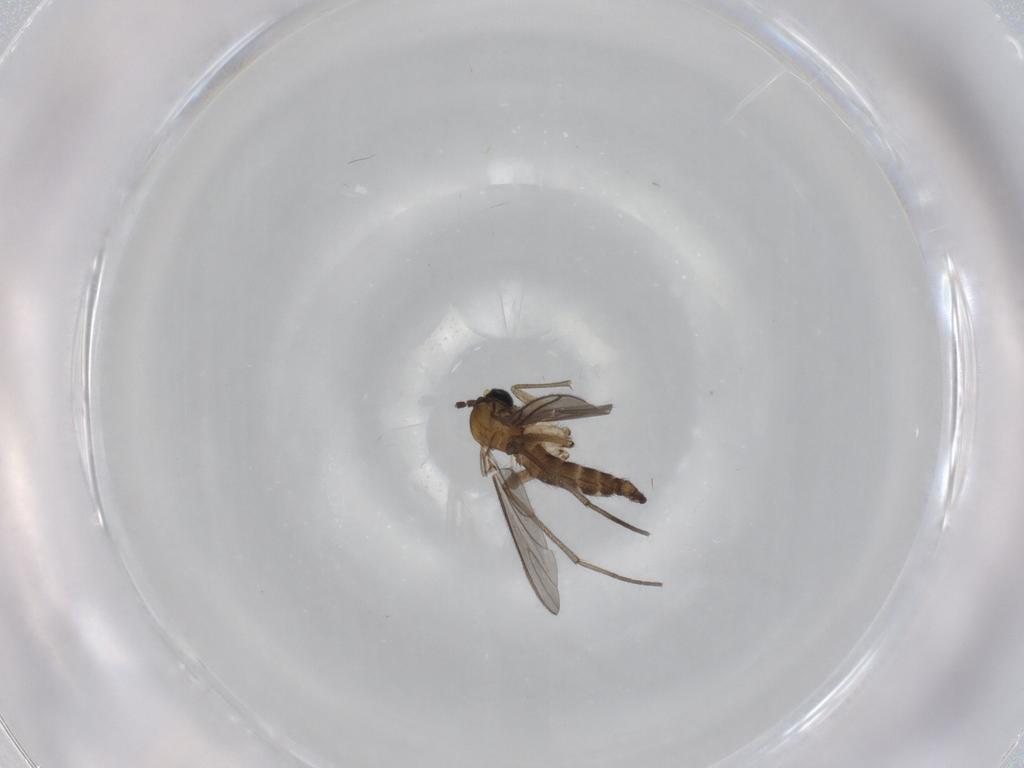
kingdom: Animalia
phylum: Arthropoda
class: Insecta
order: Diptera
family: Sciaridae
